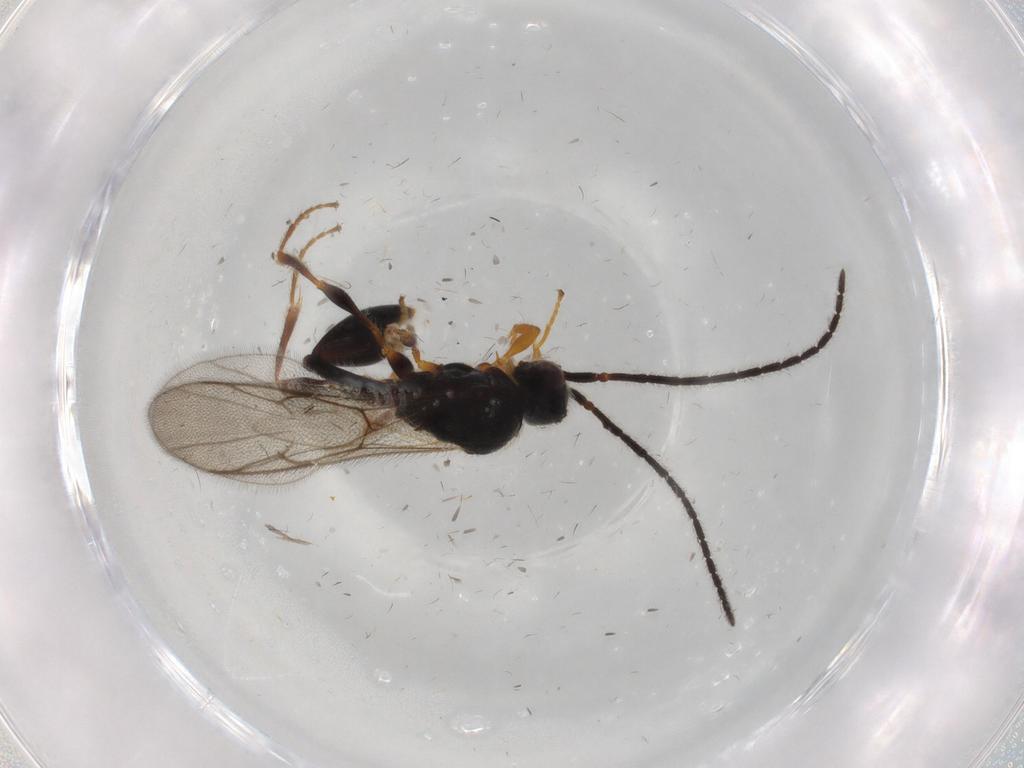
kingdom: Animalia
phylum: Arthropoda
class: Insecta
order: Hymenoptera
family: Diapriidae
